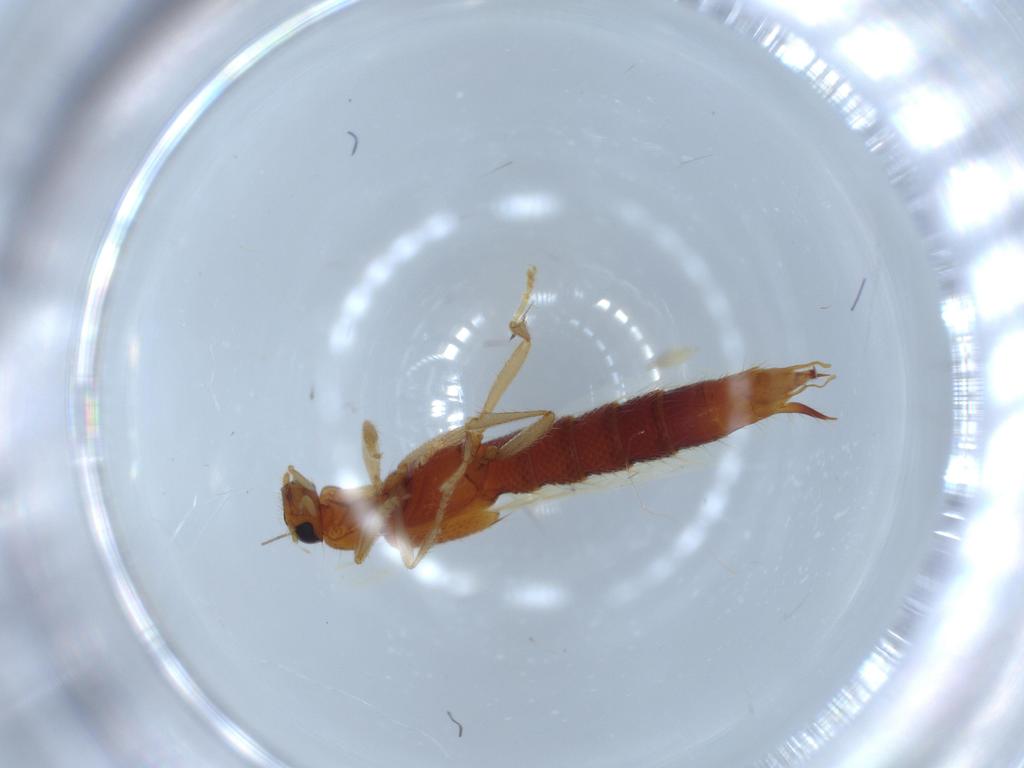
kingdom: Animalia
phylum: Arthropoda
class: Insecta
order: Coleoptera
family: Staphylinidae
